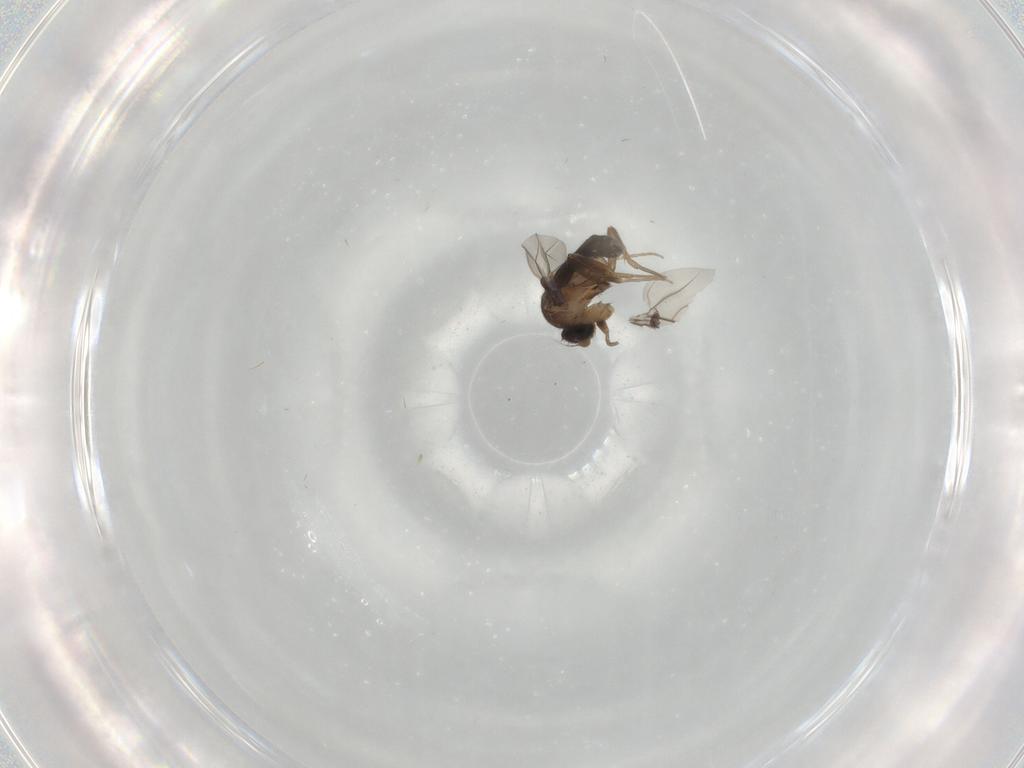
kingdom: Animalia
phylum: Arthropoda
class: Insecta
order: Diptera
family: Phoridae
